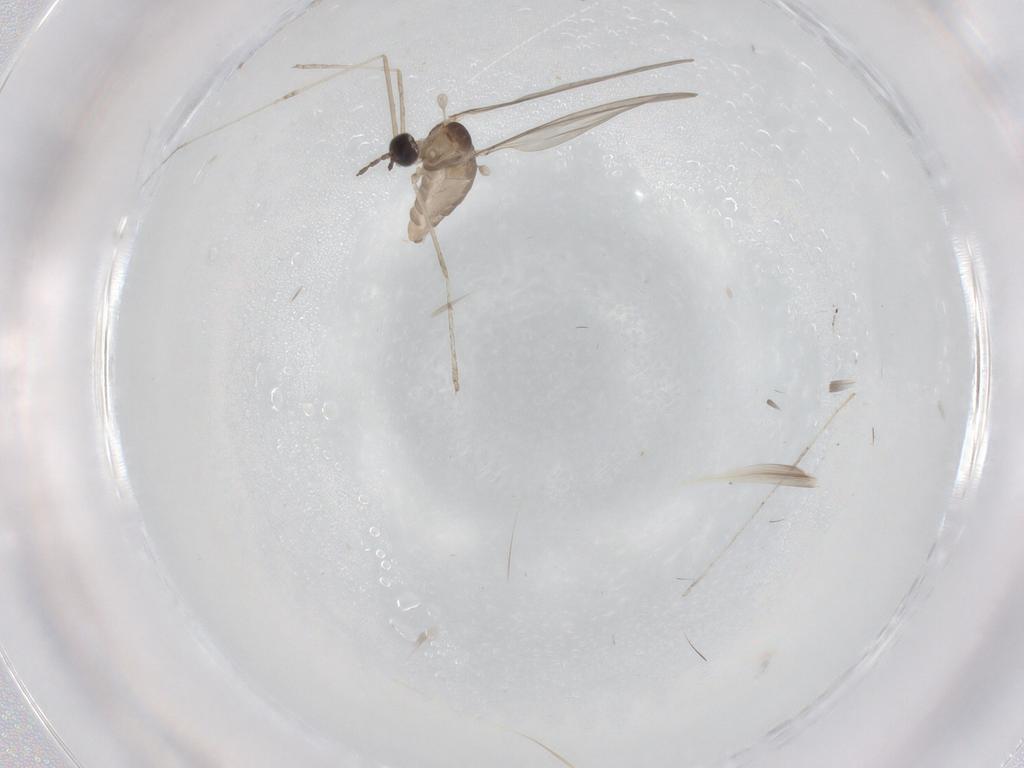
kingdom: Animalia
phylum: Arthropoda
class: Insecta
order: Diptera
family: Cecidomyiidae
